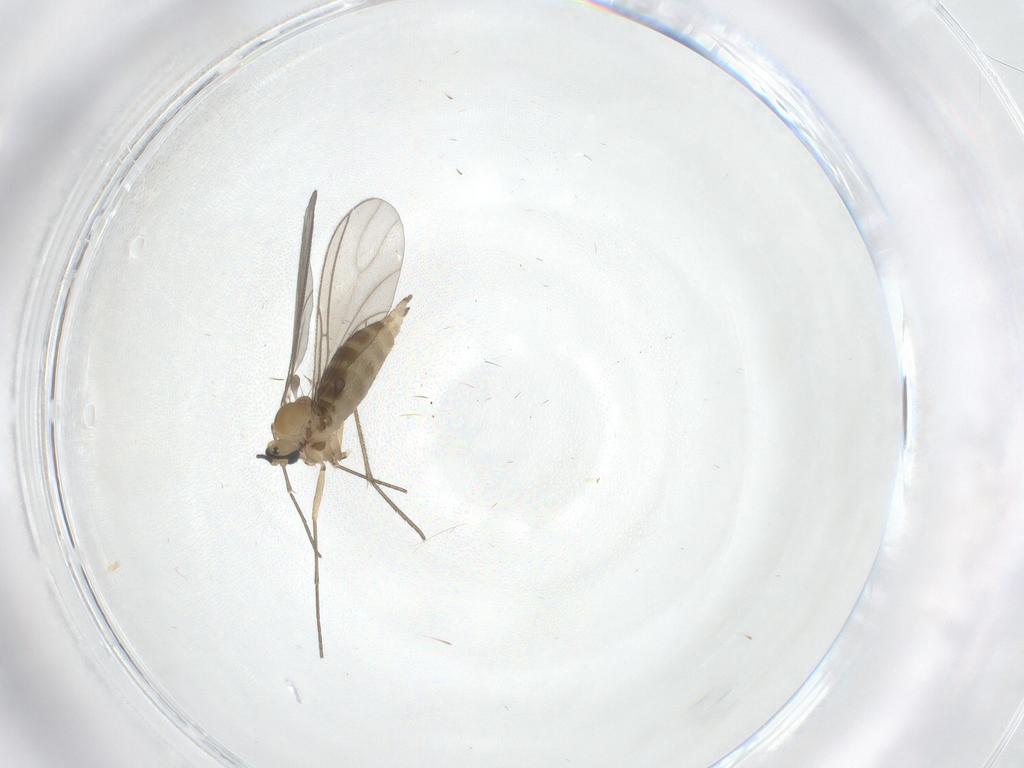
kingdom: Animalia
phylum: Arthropoda
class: Insecta
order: Diptera
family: Sciaridae
